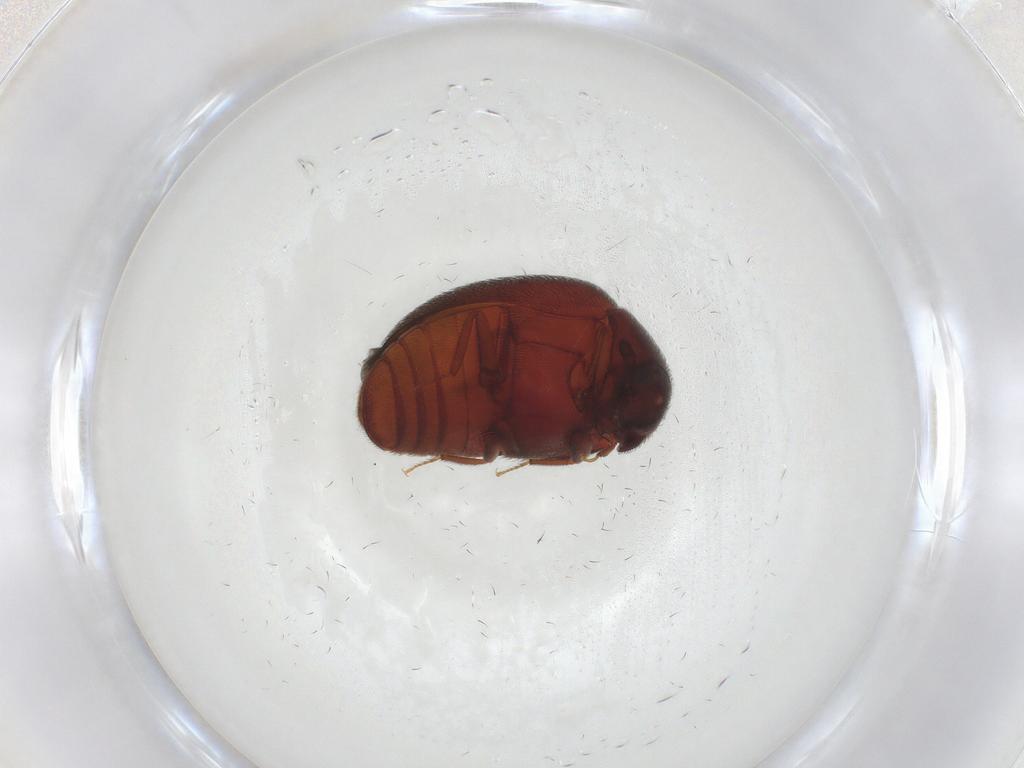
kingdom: Animalia
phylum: Arthropoda
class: Insecta
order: Coleoptera
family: Dermestidae
